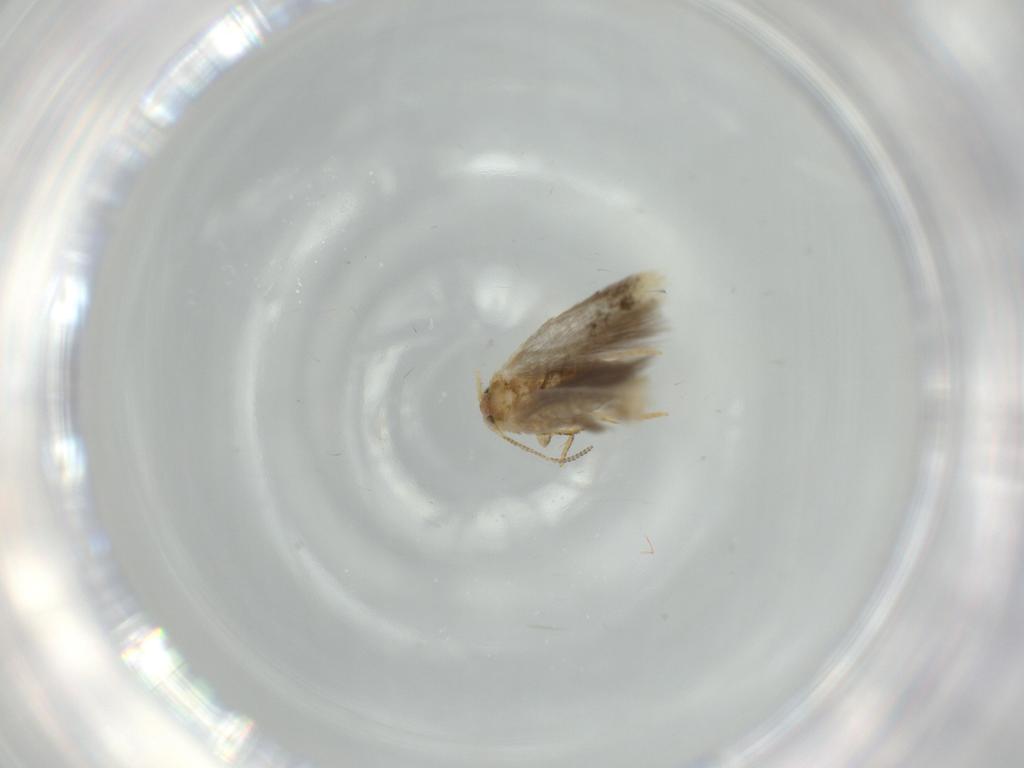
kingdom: Animalia
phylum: Arthropoda
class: Insecta
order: Lepidoptera
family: Nepticulidae
